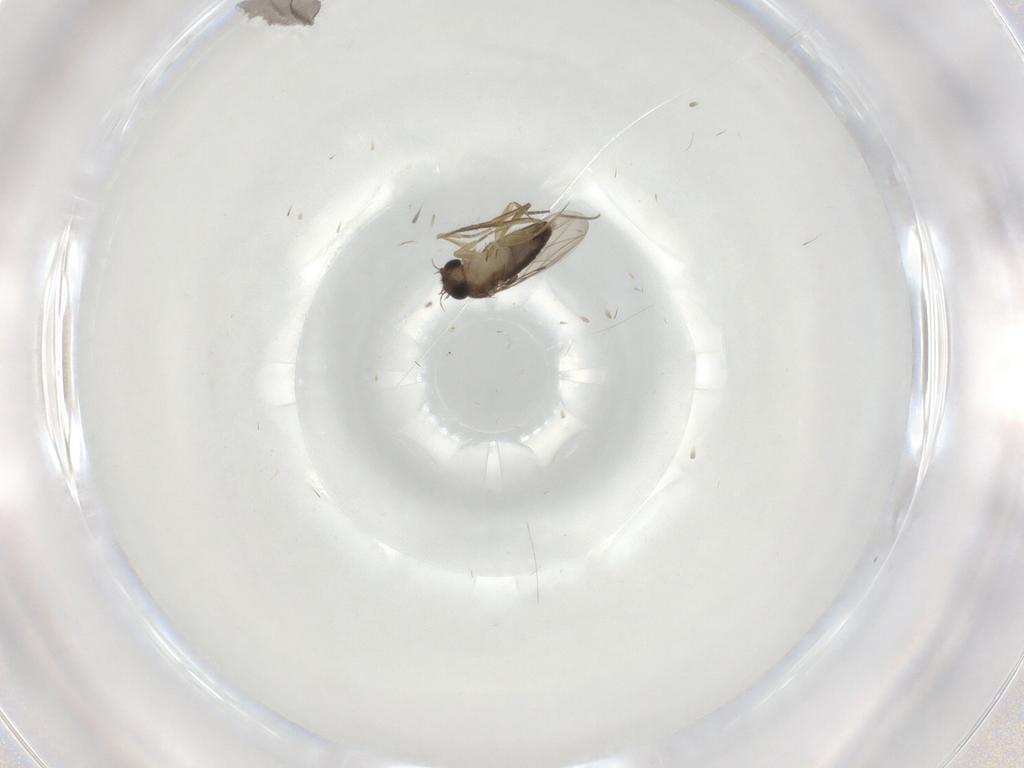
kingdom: Animalia
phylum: Arthropoda
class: Insecta
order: Diptera
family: Phoridae
